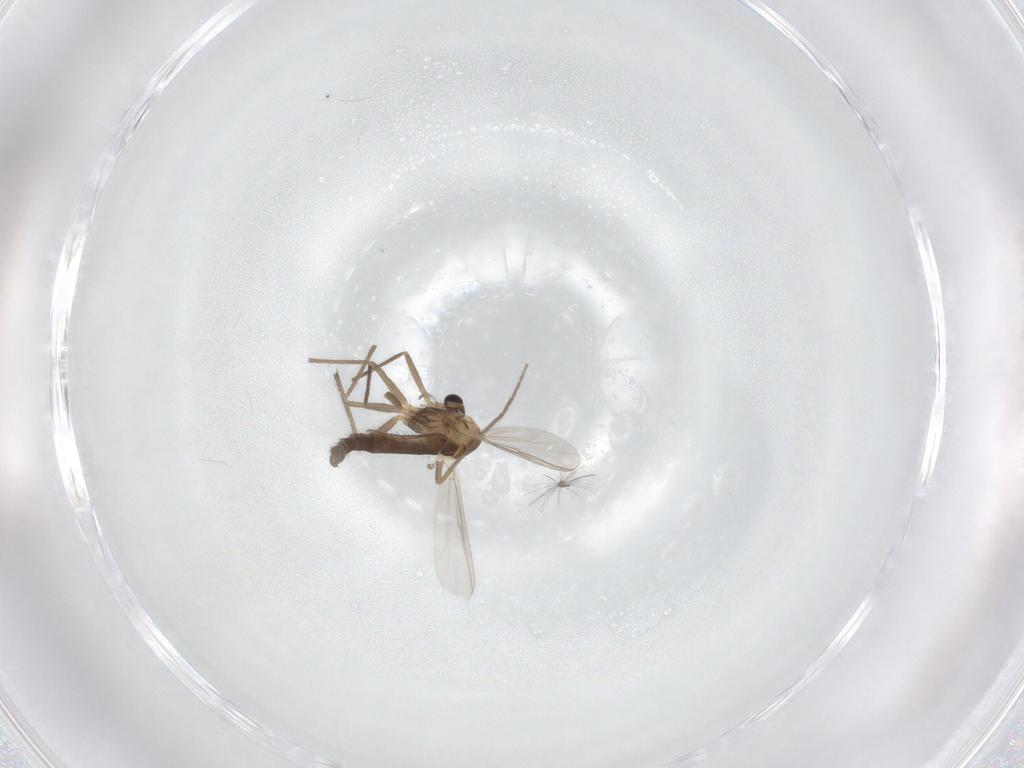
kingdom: Animalia
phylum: Arthropoda
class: Insecta
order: Diptera
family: Chironomidae
